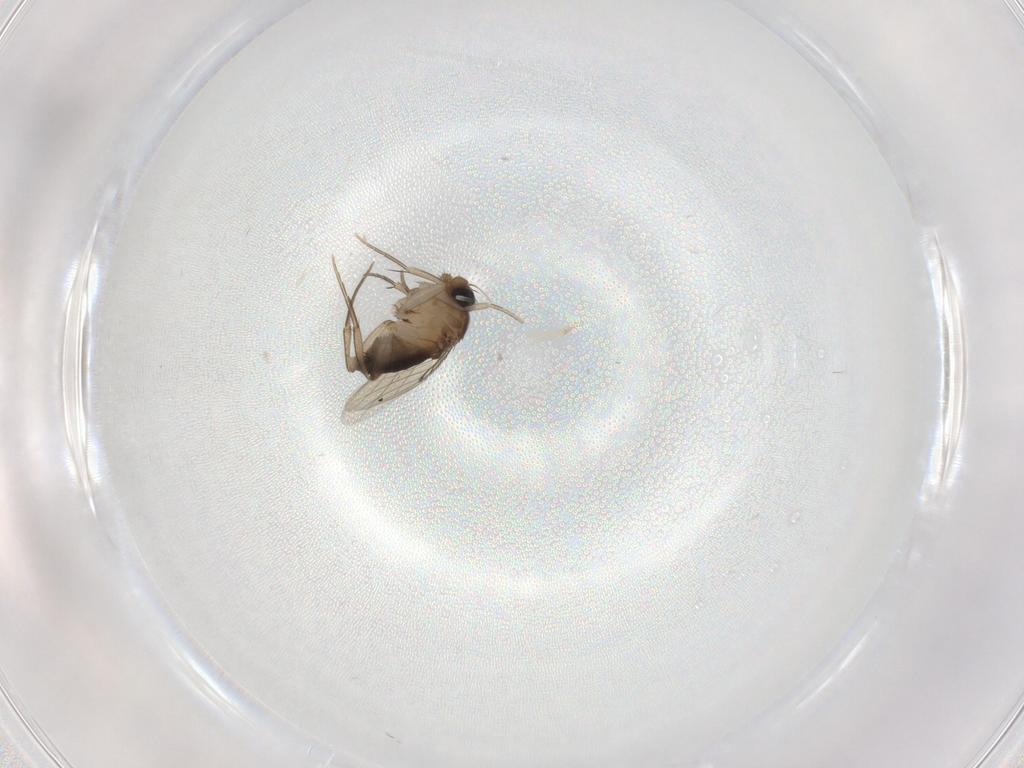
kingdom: Animalia
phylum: Arthropoda
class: Insecta
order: Diptera
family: Phoridae
